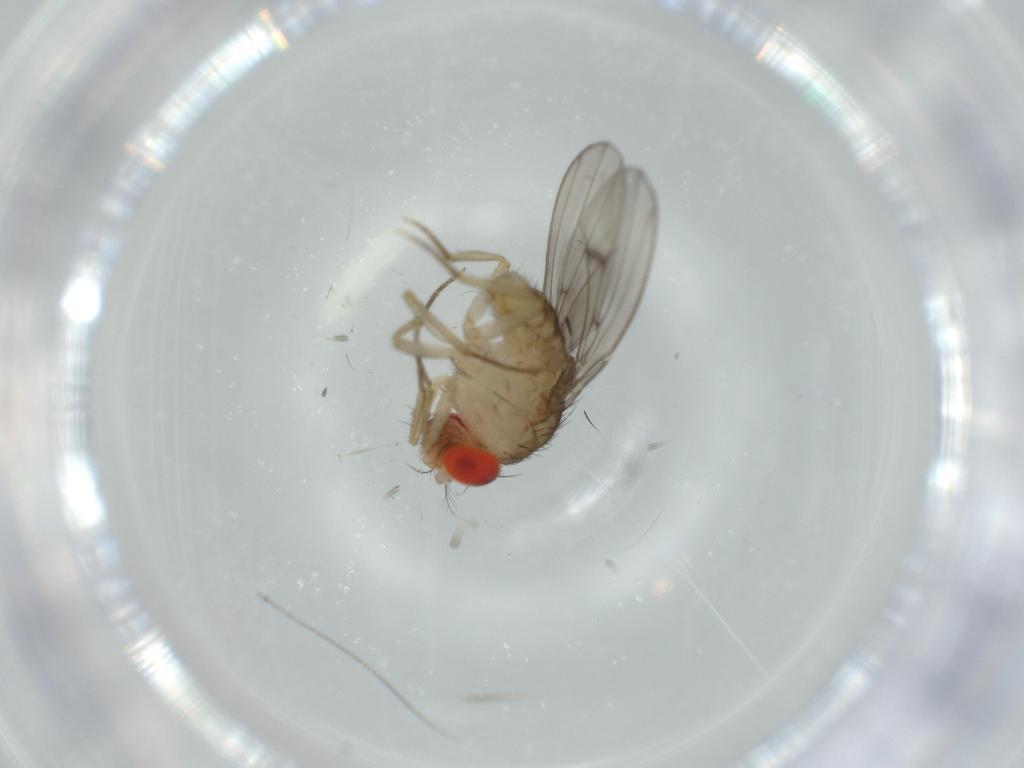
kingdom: Animalia
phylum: Arthropoda
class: Insecta
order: Diptera
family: Drosophilidae
